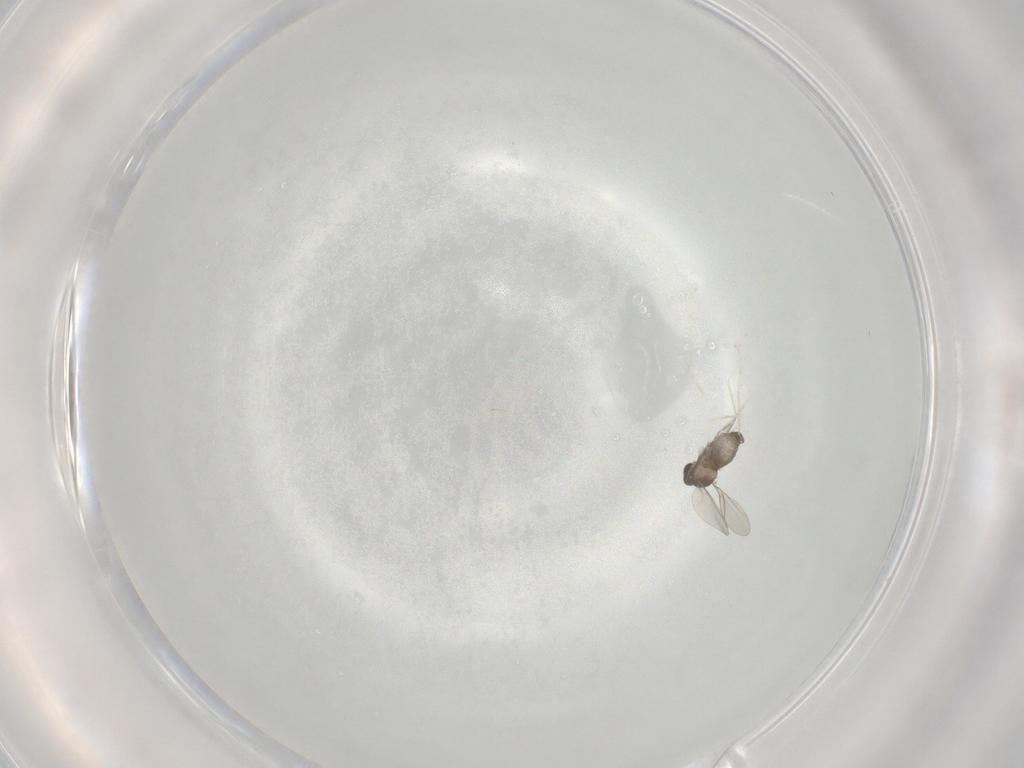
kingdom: Animalia
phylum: Arthropoda
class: Insecta
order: Diptera
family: Cecidomyiidae
